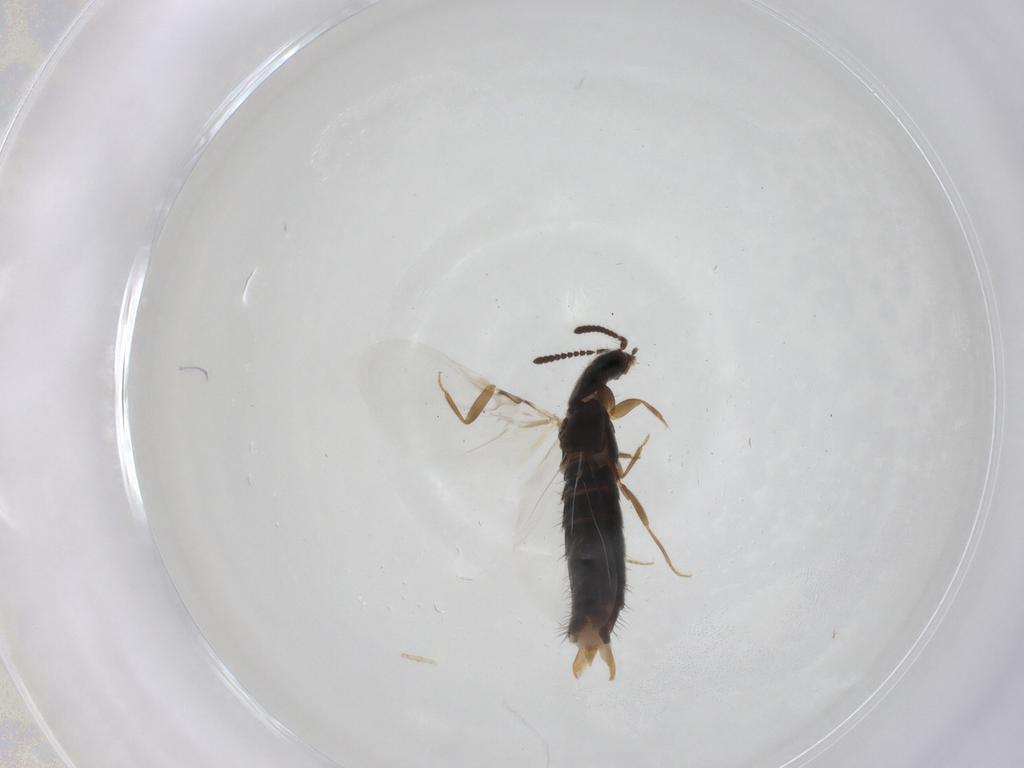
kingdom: Animalia
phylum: Arthropoda
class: Insecta
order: Coleoptera
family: Staphylinidae
